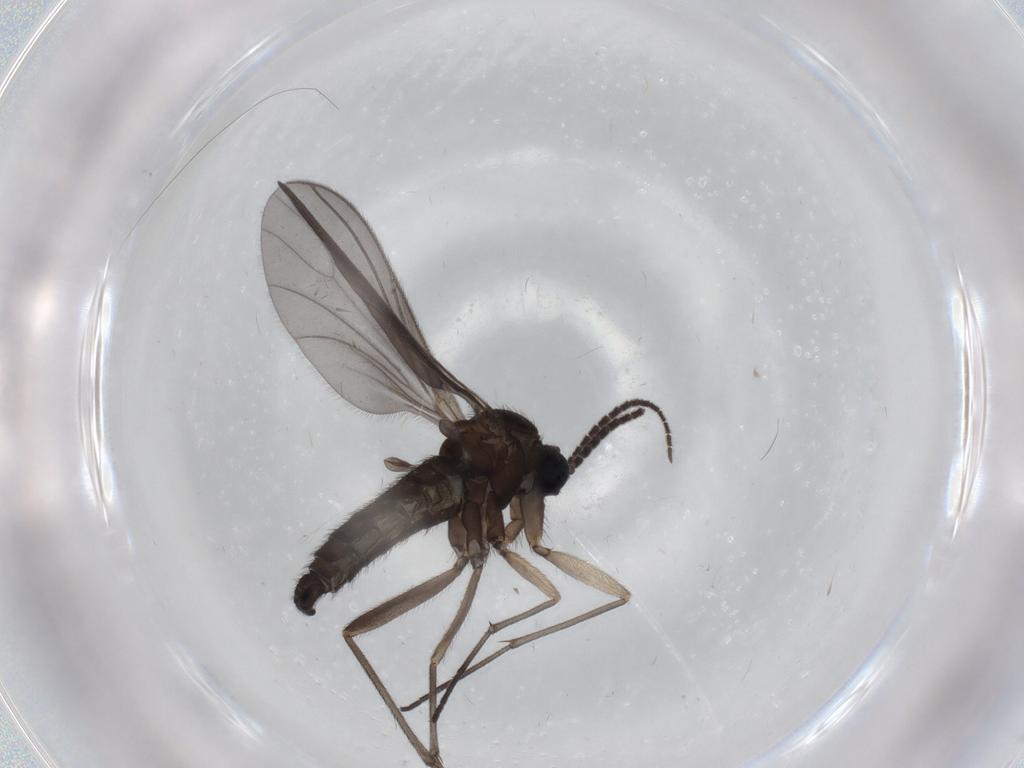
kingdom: Animalia
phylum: Arthropoda
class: Insecta
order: Diptera
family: Sciaridae
